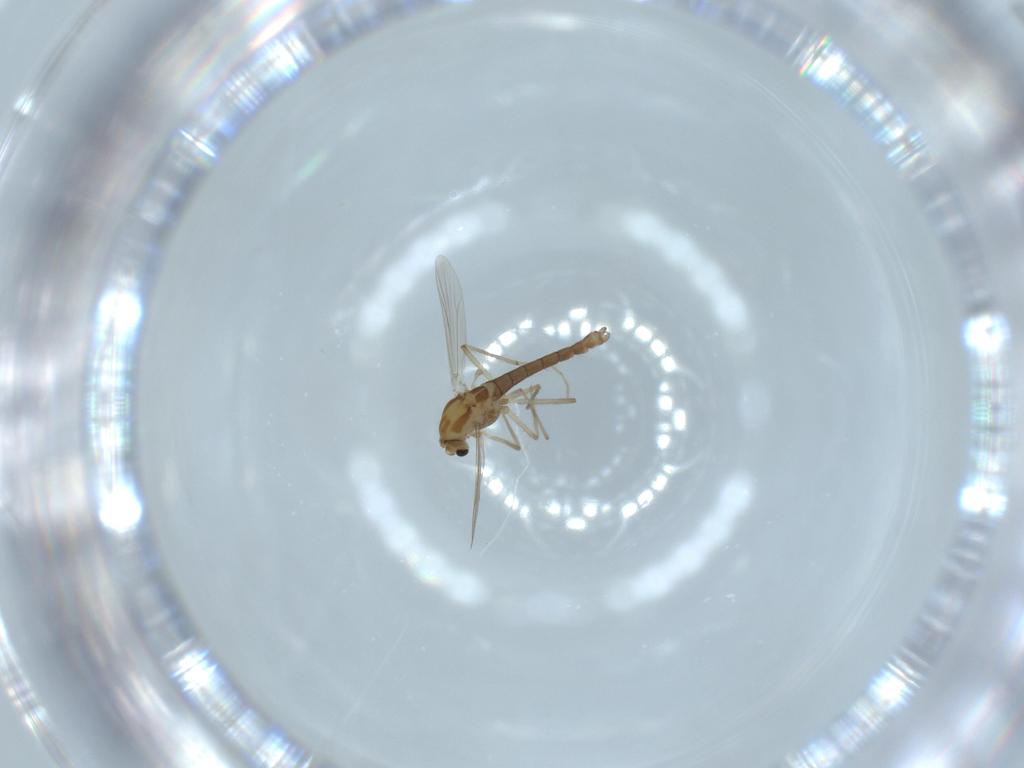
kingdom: Animalia
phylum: Arthropoda
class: Insecta
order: Diptera
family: Chironomidae
